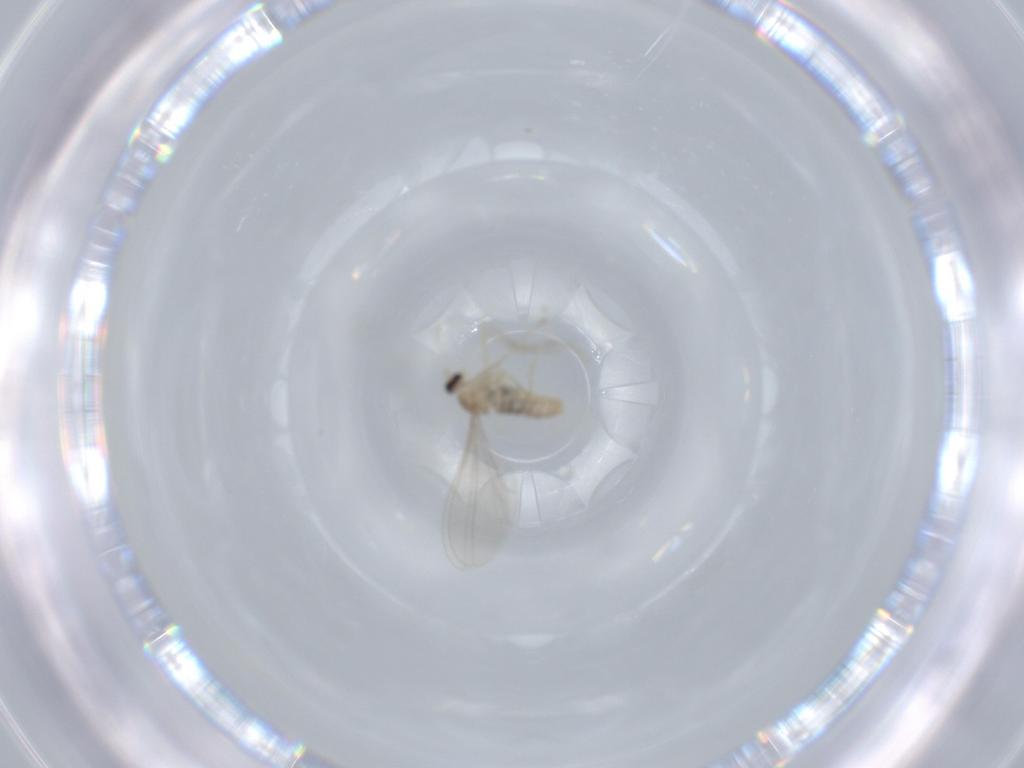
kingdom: Animalia
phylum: Arthropoda
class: Insecta
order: Diptera
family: Cecidomyiidae
